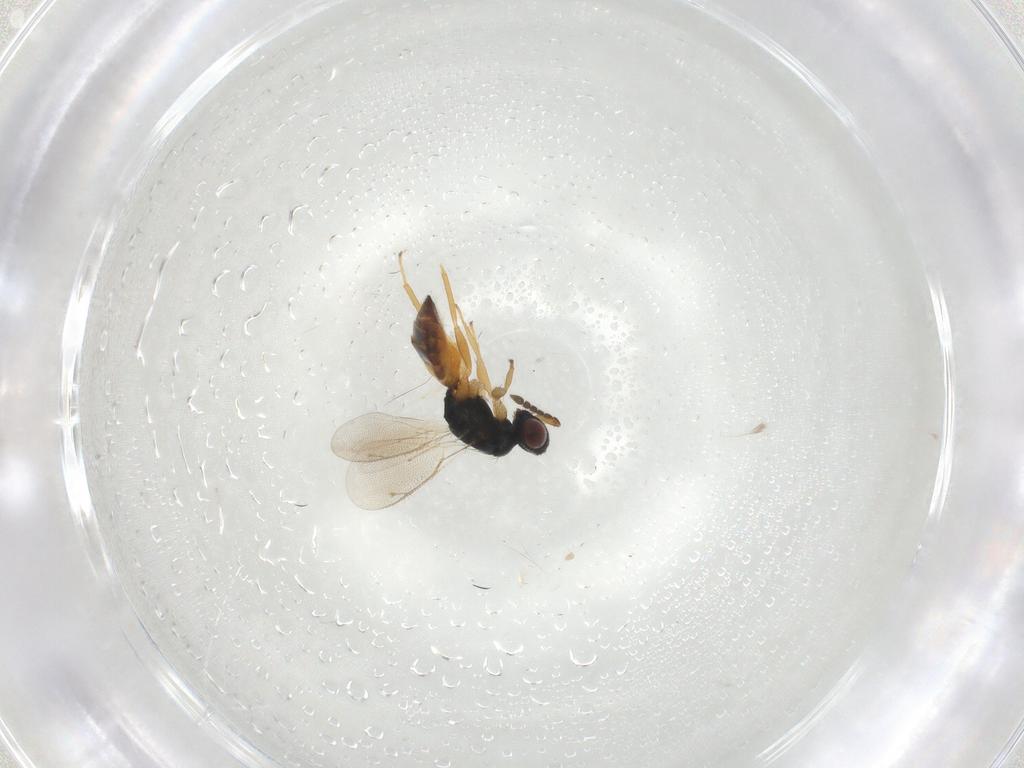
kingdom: Animalia
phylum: Arthropoda
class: Insecta
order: Hymenoptera
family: Eulophidae
